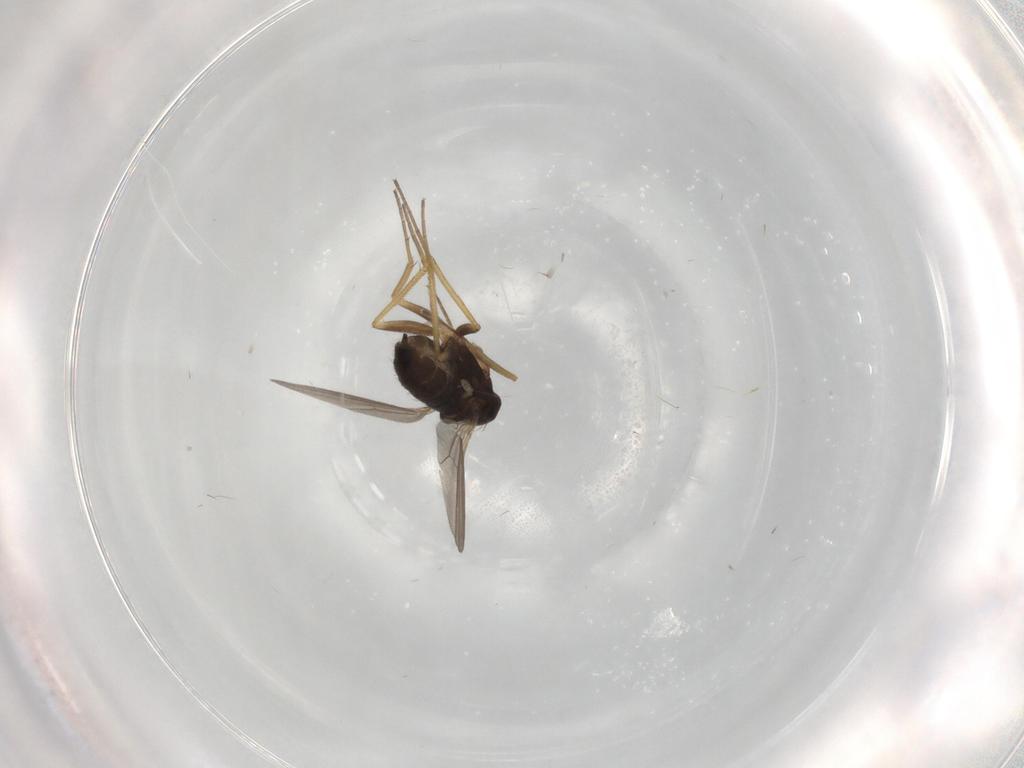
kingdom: Animalia
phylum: Arthropoda
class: Insecta
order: Diptera
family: Dolichopodidae
